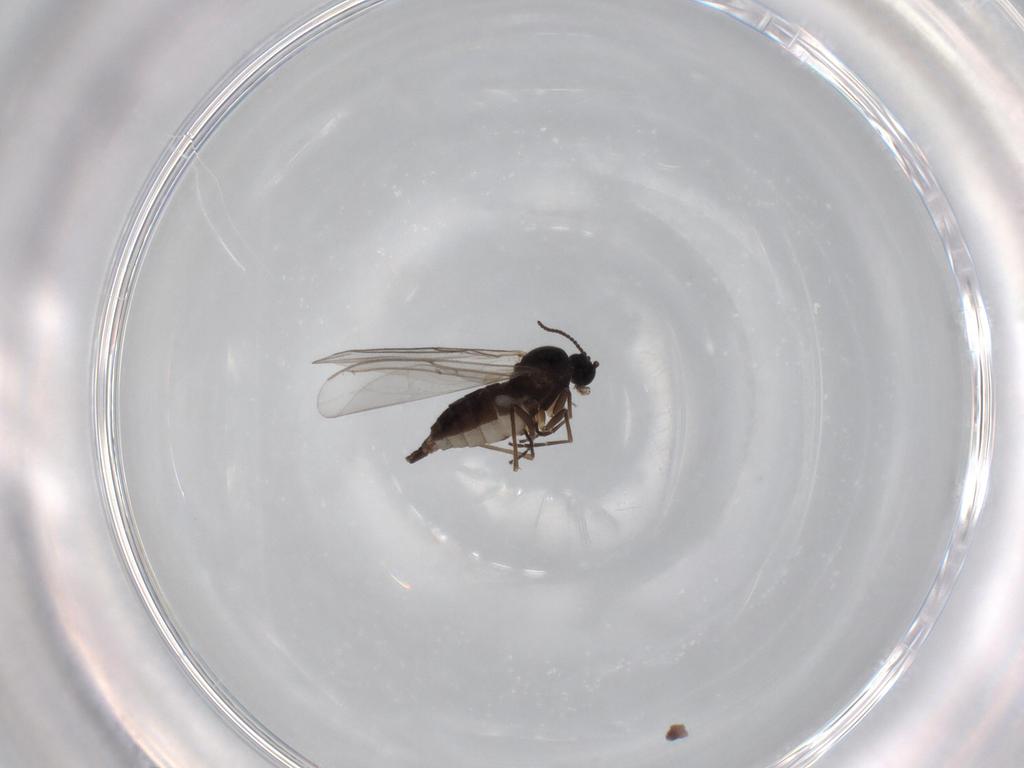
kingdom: Animalia
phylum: Arthropoda
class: Insecta
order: Diptera
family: Sciaridae
